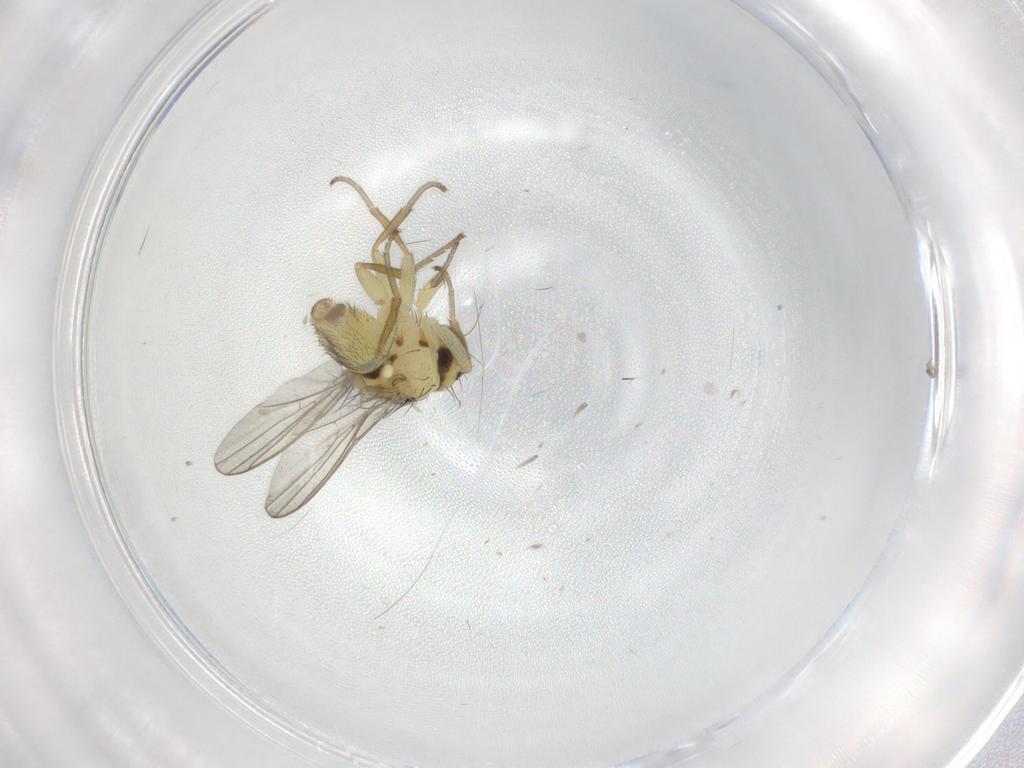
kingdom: Animalia
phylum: Arthropoda
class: Insecta
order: Diptera
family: Agromyzidae
